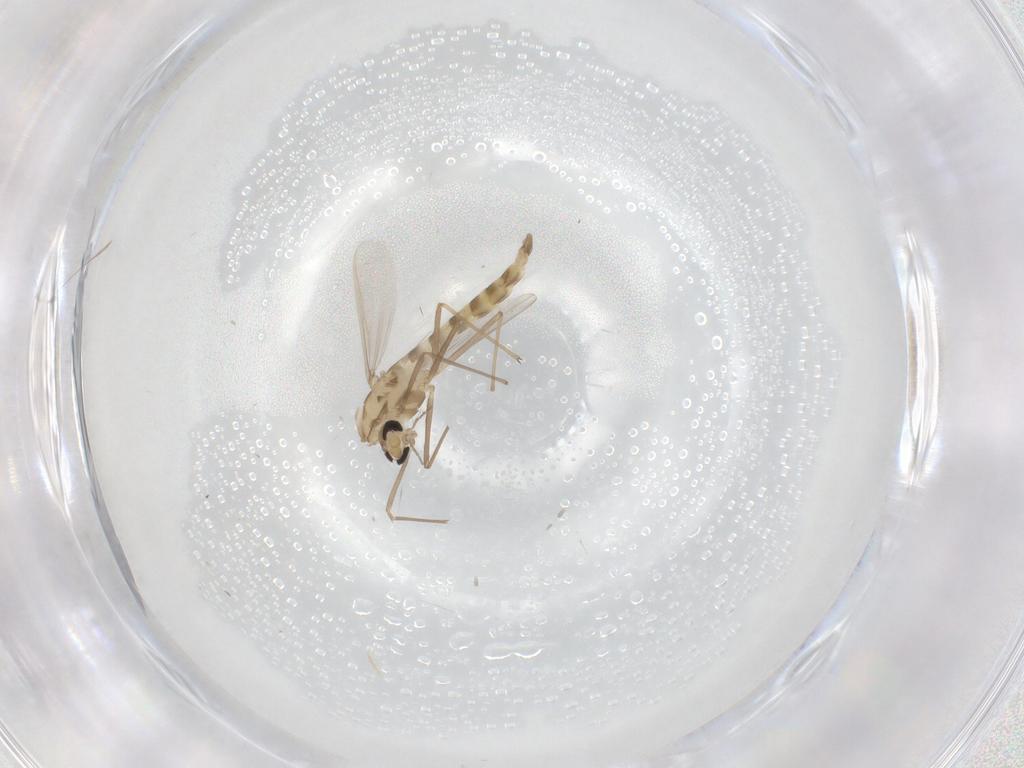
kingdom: Animalia
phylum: Arthropoda
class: Insecta
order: Diptera
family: Chironomidae
